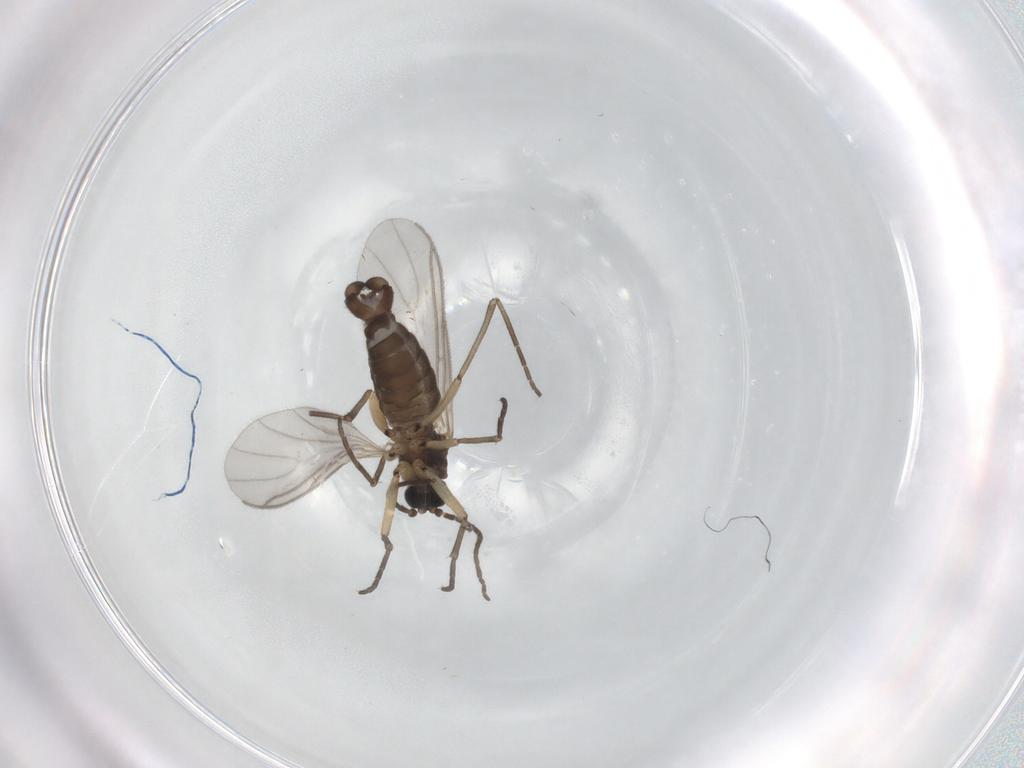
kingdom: Animalia
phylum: Arthropoda
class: Insecta
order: Diptera
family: Sciaridae
